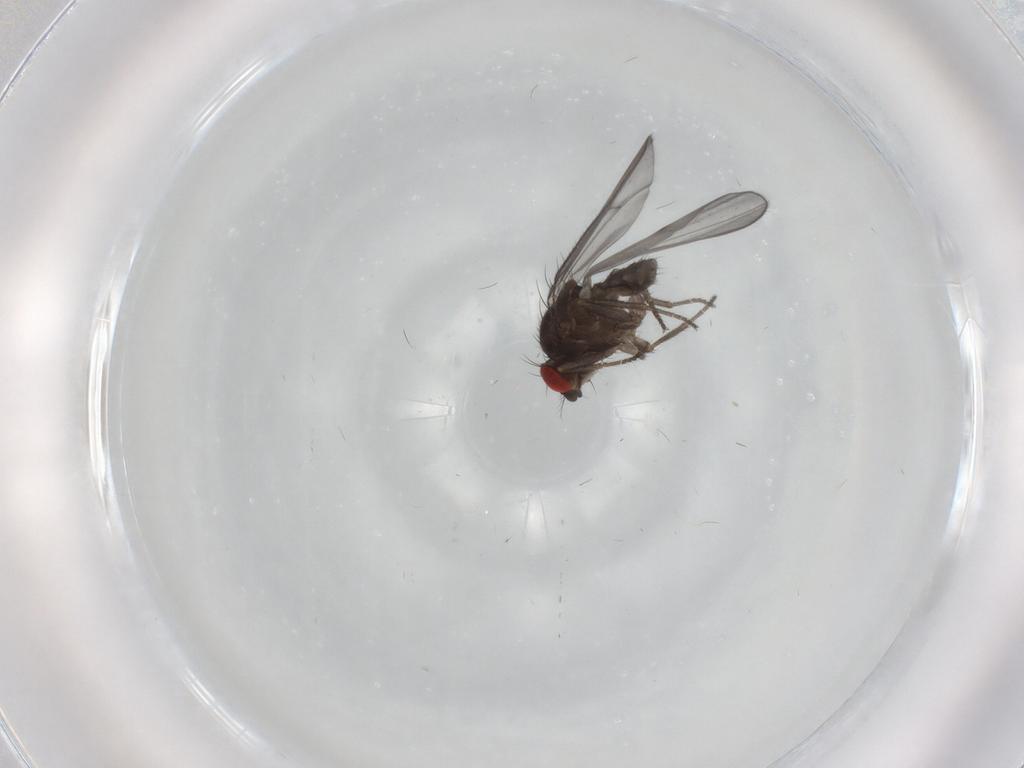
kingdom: Animalia
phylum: Arthropoda
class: Insecta
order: Diptera
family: Drosophilidae
